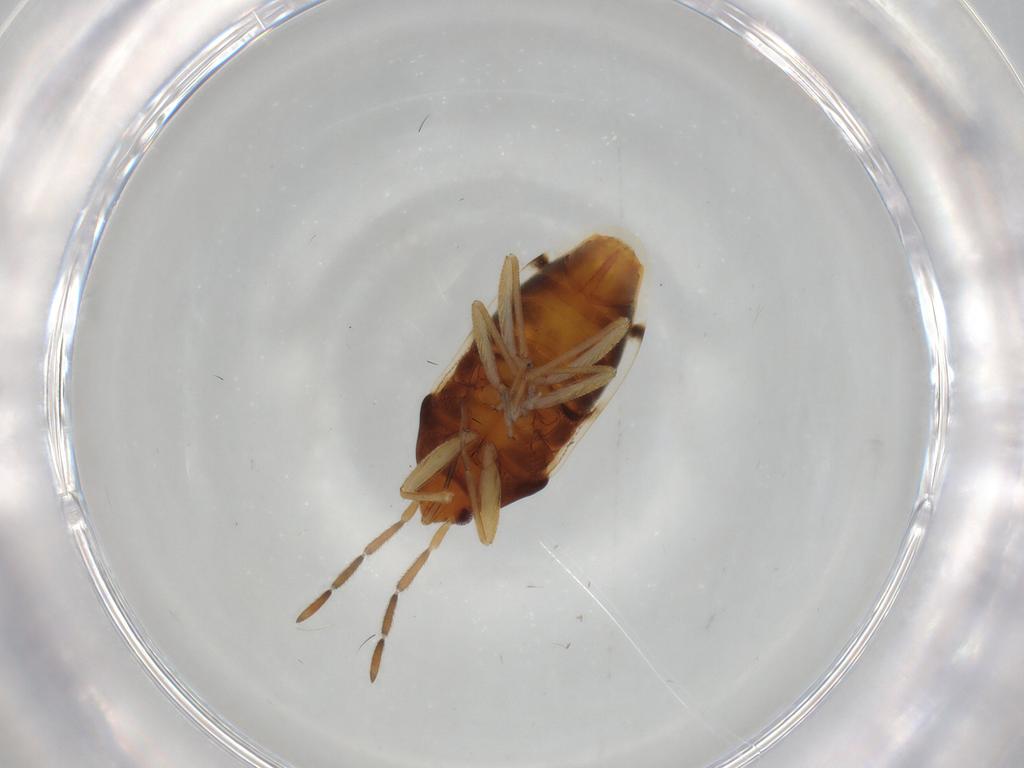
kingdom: Animalia
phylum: Arthropoda
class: Insecta
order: Hemiptera
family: Rhyparochromidae
